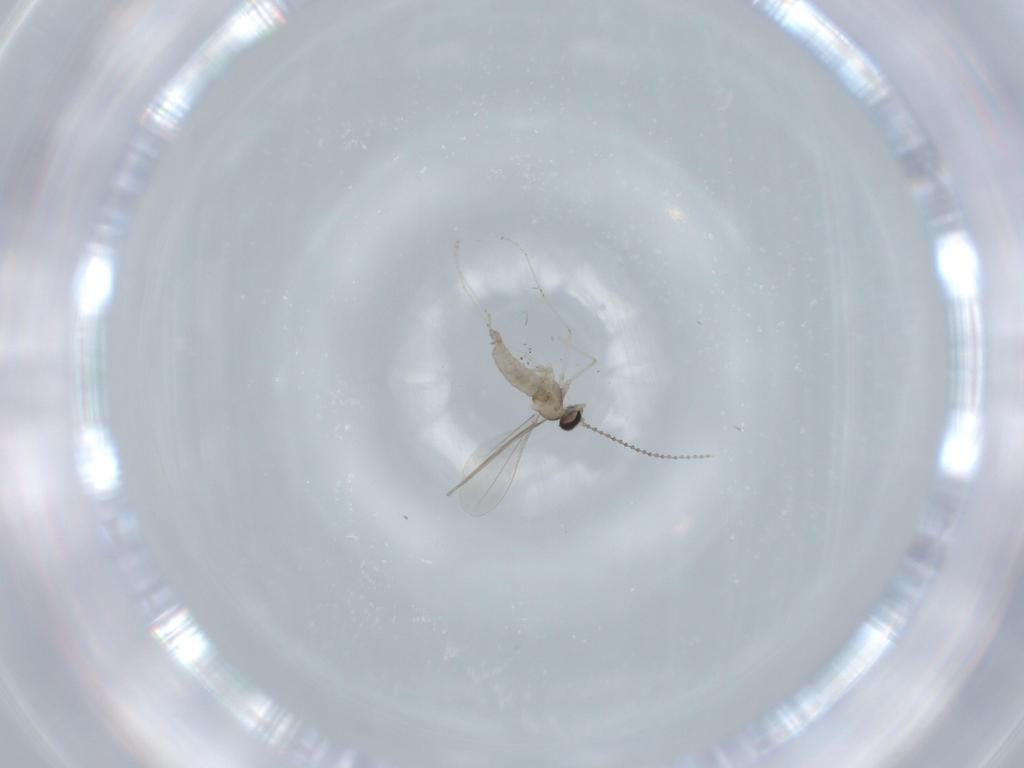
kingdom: Animalia
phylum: Arthropoda
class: Insecta
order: Diptera
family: Cecidomyiidae
